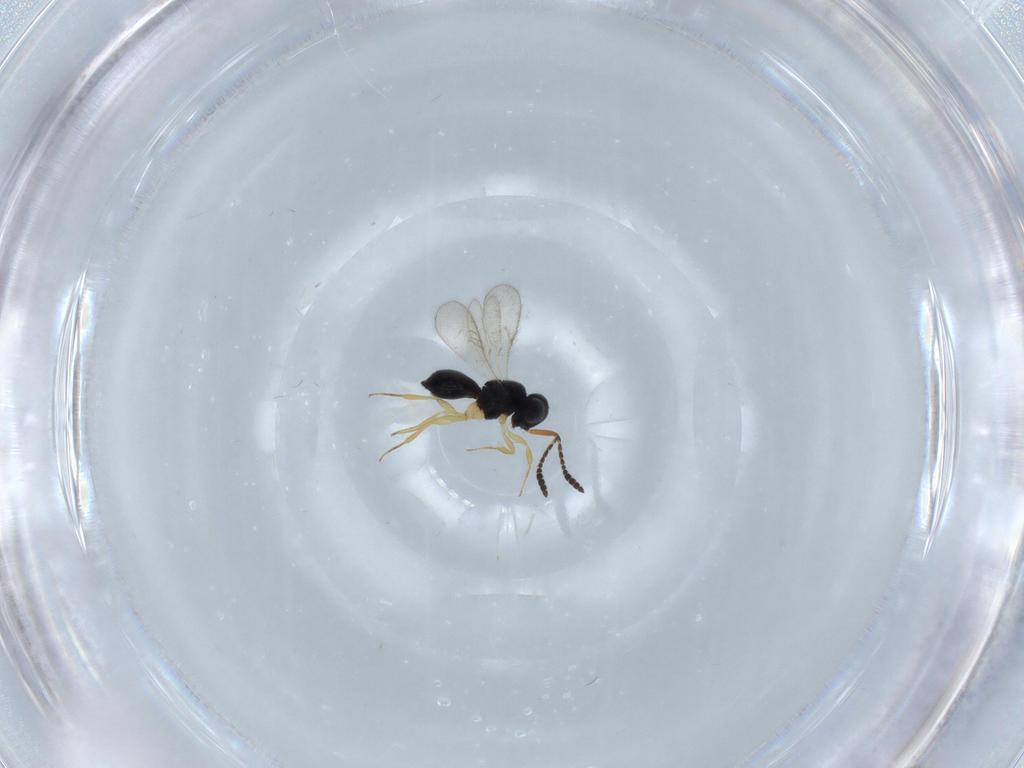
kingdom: Animalia
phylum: Arthropoda
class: Insecta
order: Hymenoptera
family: Scelionidae
